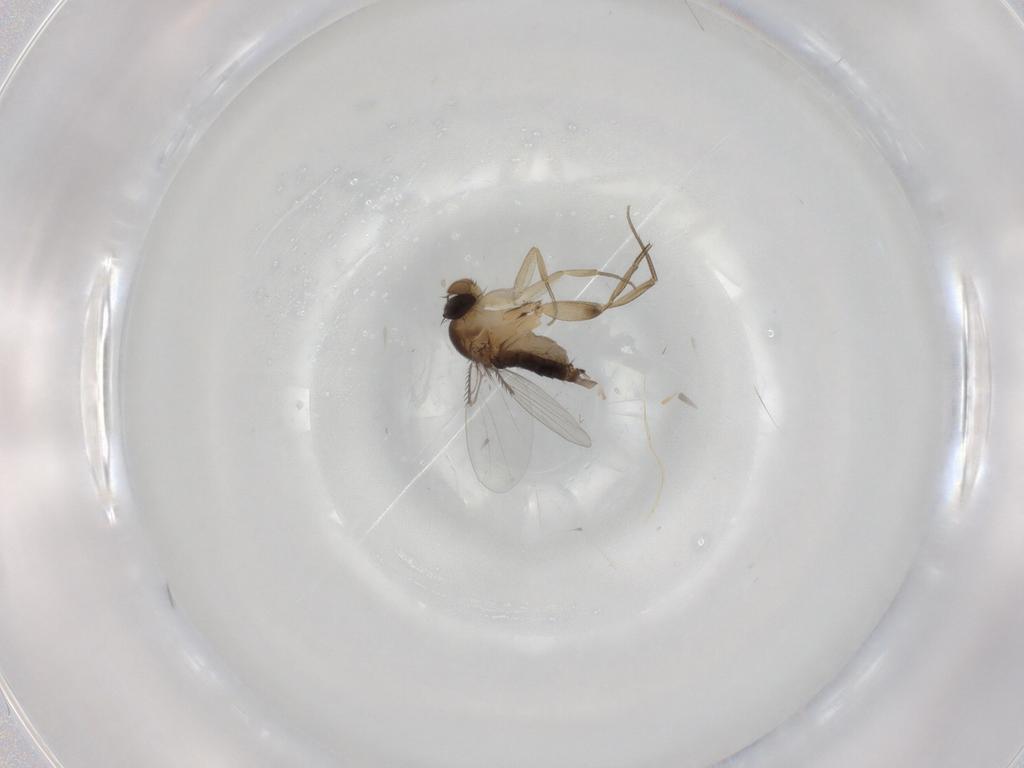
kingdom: Animalia
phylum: Arthropoda
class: Insecta
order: Diptera
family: Phoridae
